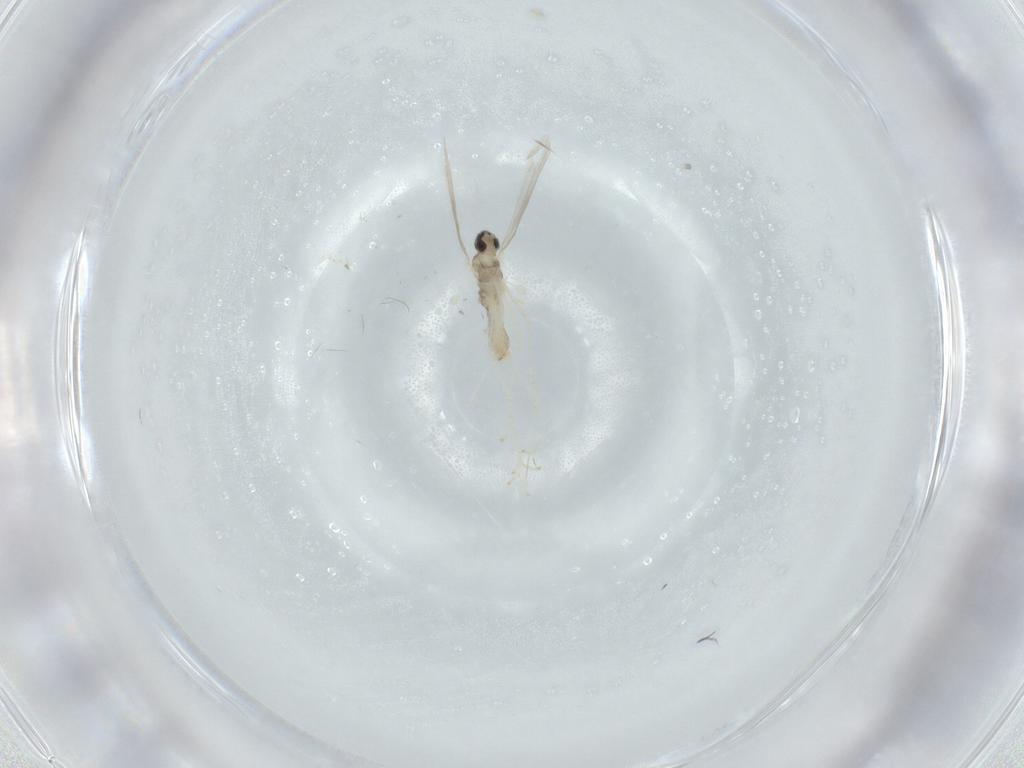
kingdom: Animalia
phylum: Arthropoda
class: Insecta
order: Diptera
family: Cecidomyiidae
